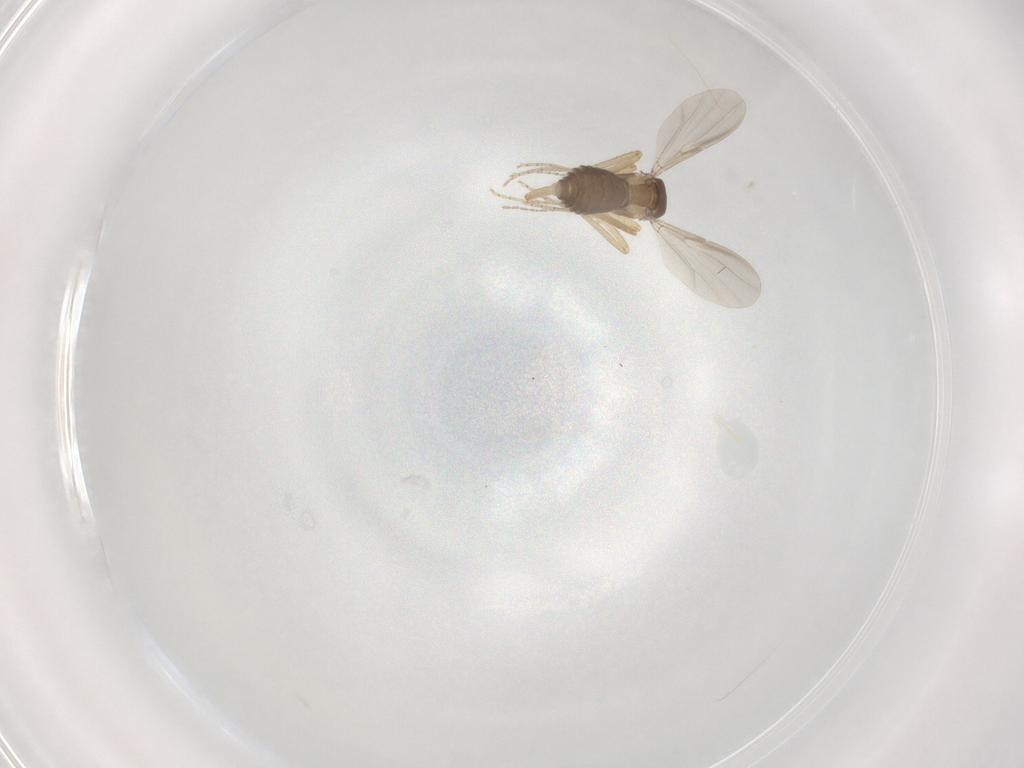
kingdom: Animalia
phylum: Arthropoda
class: Insecta
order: Diptera
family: Ceratopogonidae
